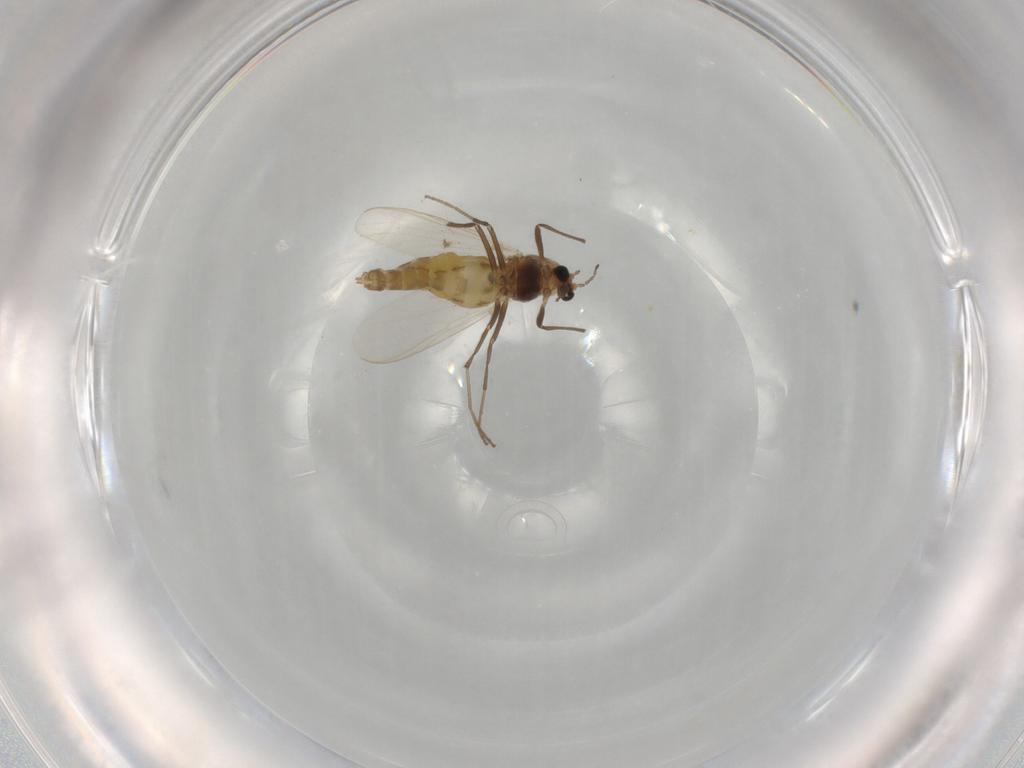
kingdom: Animalia
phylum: Arthropoda
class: Insecta
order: Diptera
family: Chironomidae
